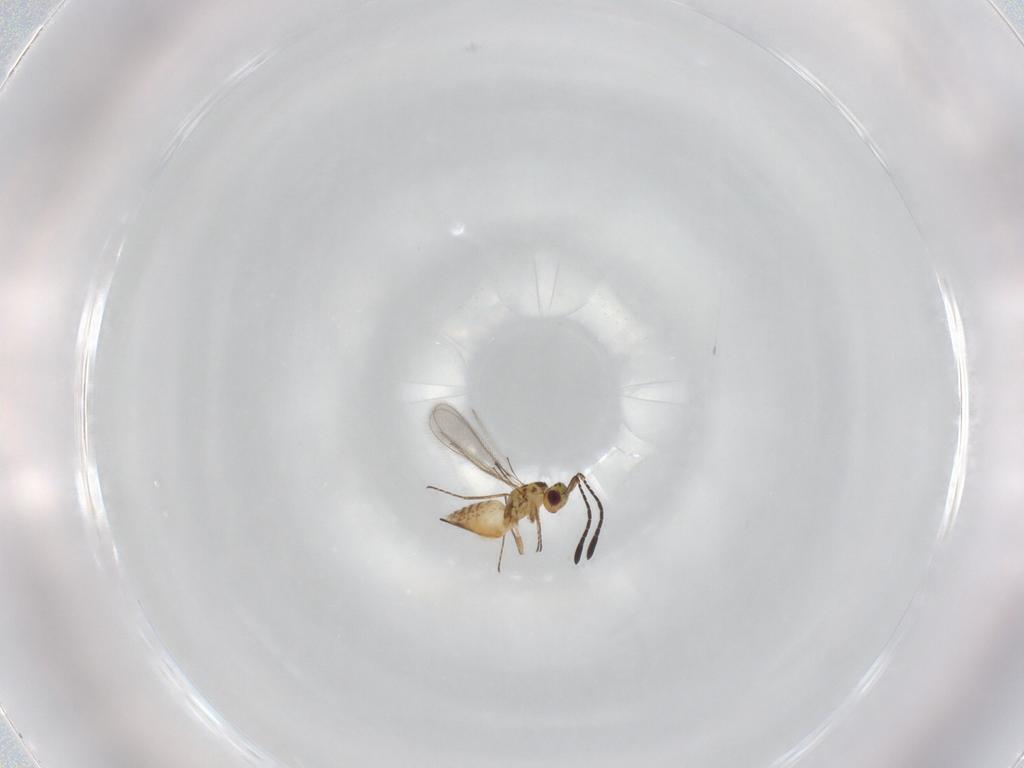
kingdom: Animalia
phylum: Arthropoda
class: Insecta
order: Hymenoptera
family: Mymaridae
